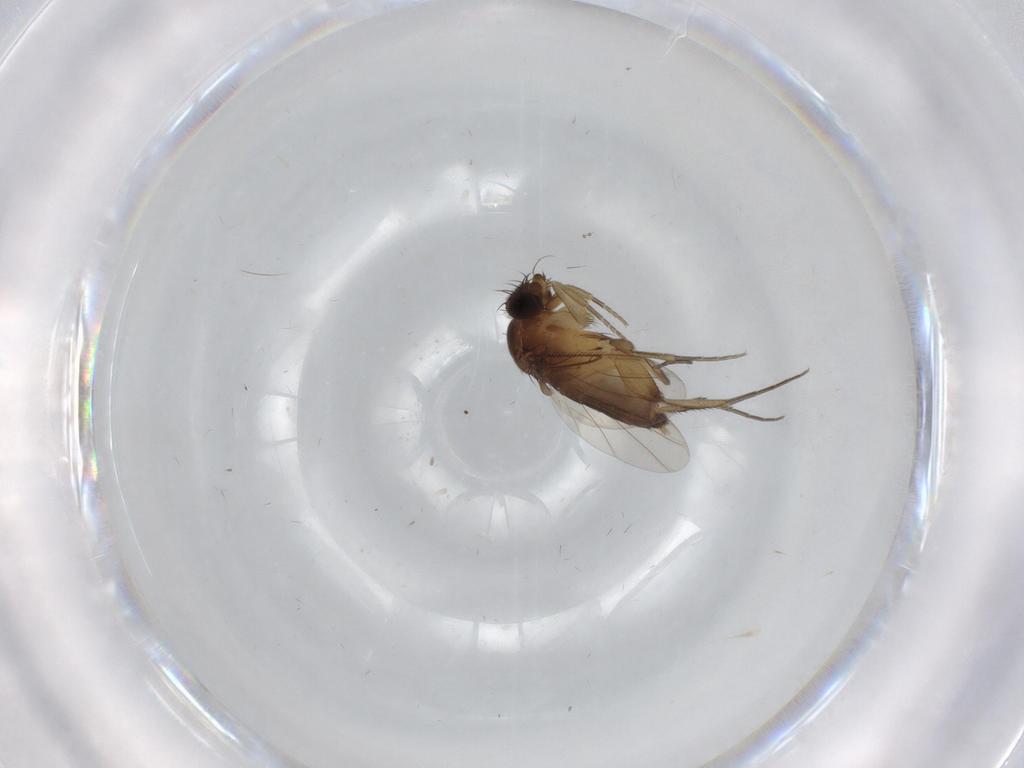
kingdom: Animalia
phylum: Arthropoda
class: Insecta
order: Diptera
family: Phoridae
